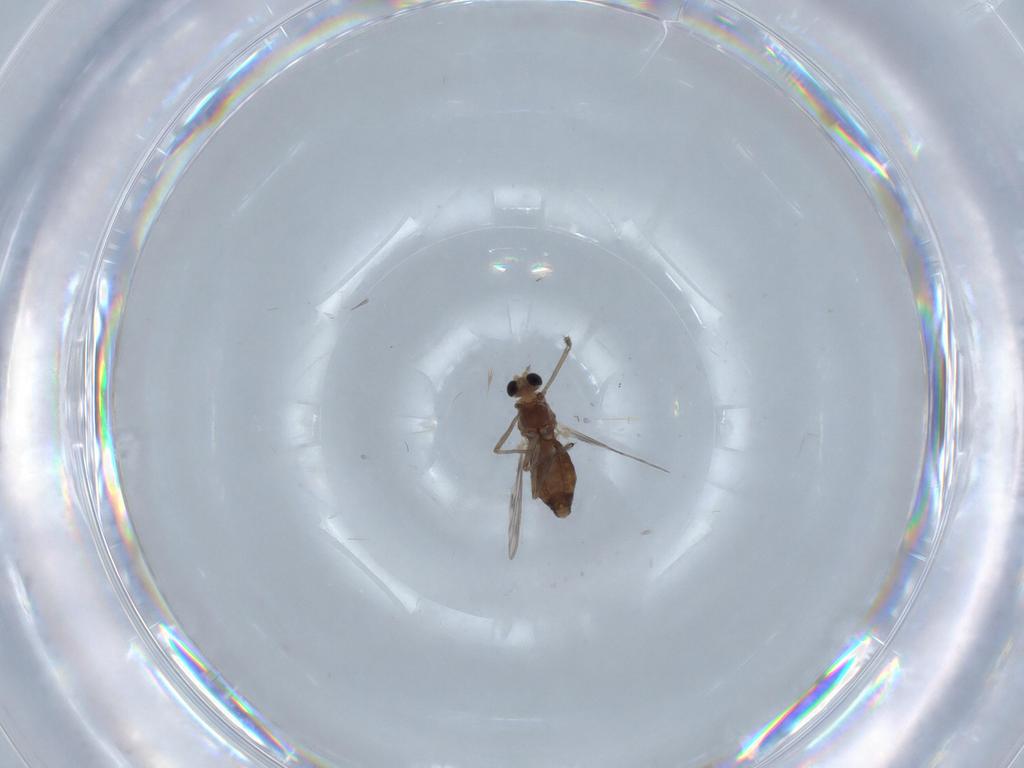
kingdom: Animalia
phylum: Arthropoda
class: Insecta
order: Diptera
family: Chironomidae
